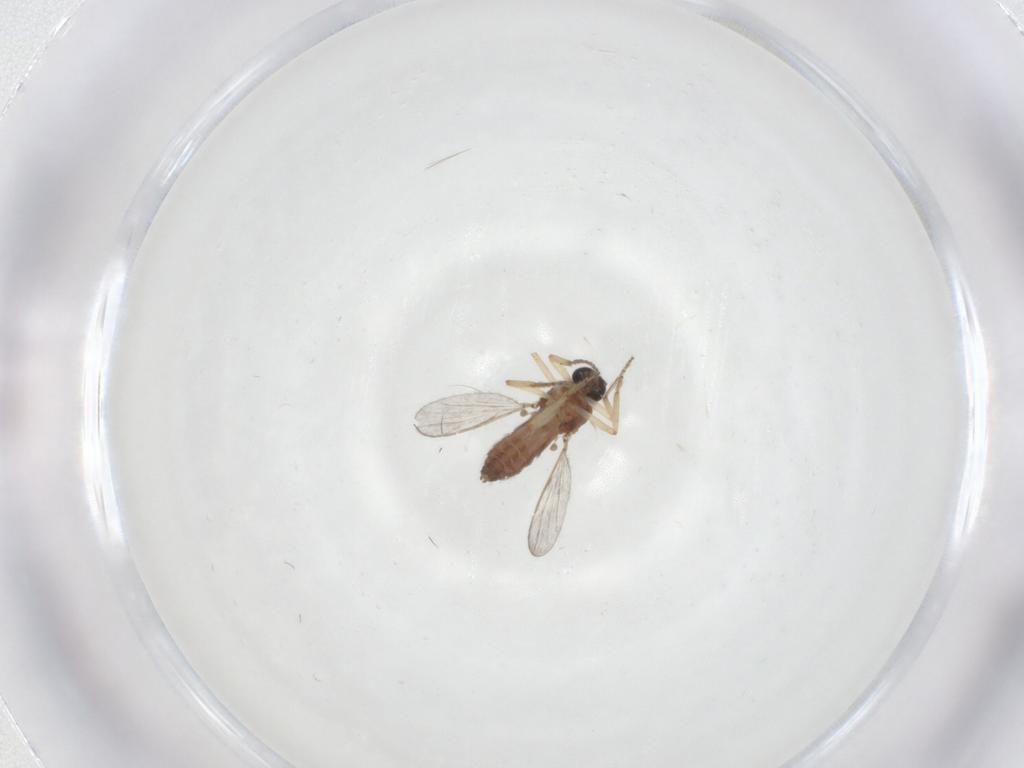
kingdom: Animalia
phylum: Arthropoda
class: Insecta
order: Diptera
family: Ceratopogonidae
